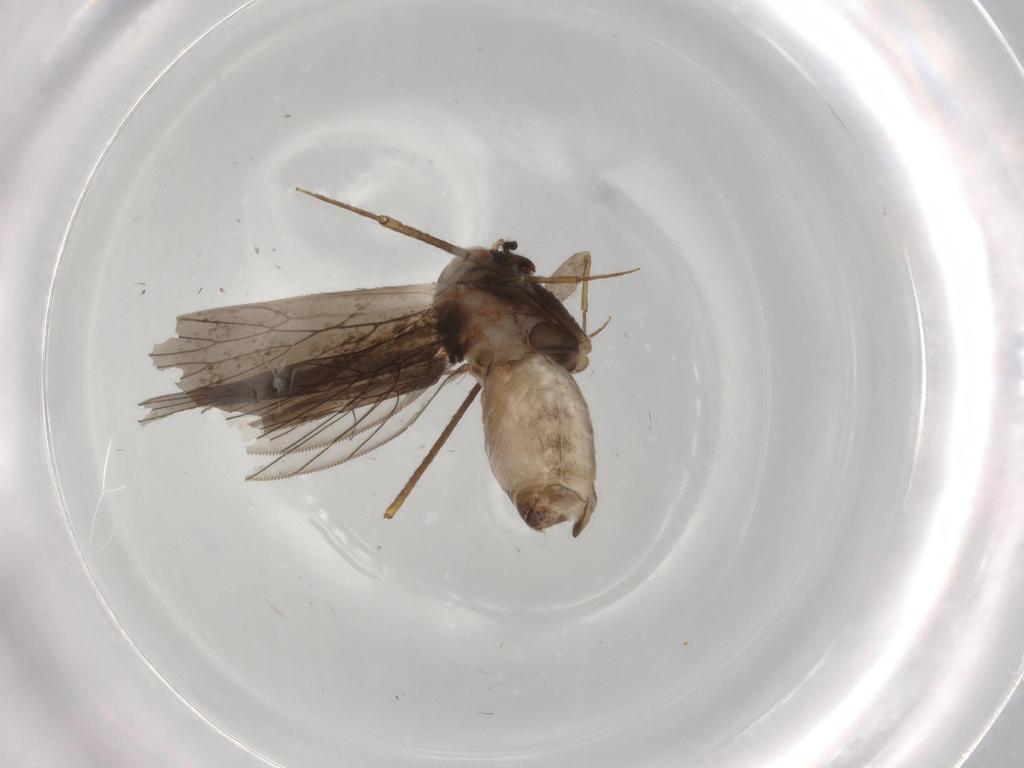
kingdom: Animalia
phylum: Arthropoda
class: Insecta
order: Psocodea
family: Lepidopsocidae
